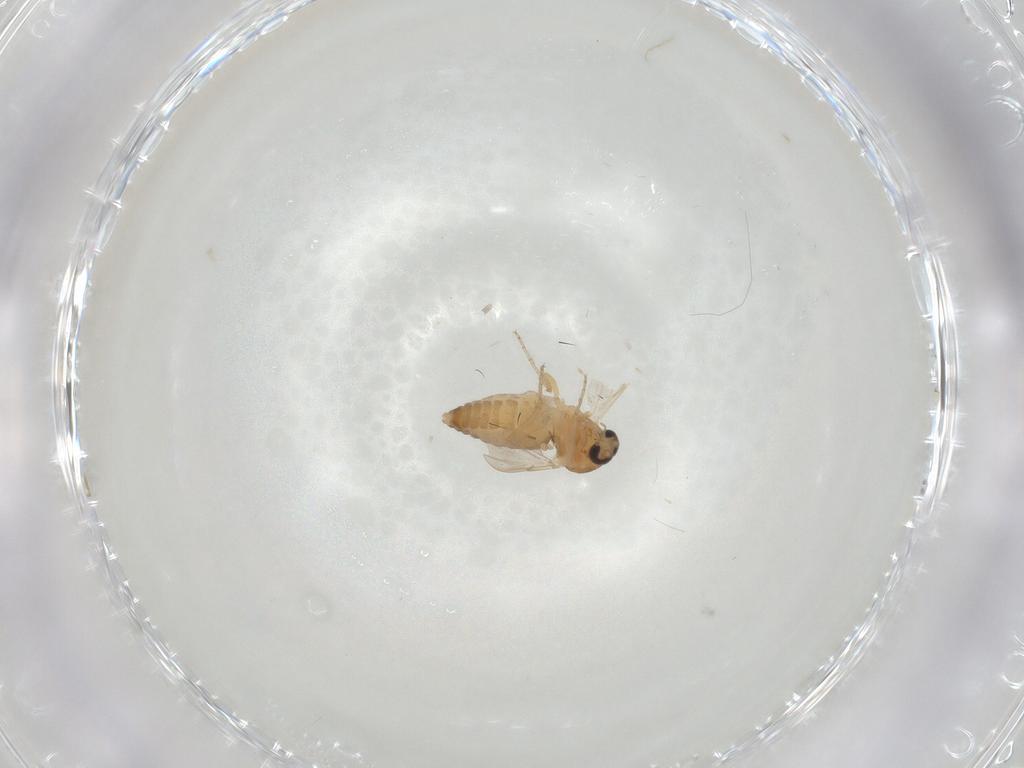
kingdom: Animalia
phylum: Arthropoda
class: Insecta
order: Diptera
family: Ceratopogonidae
